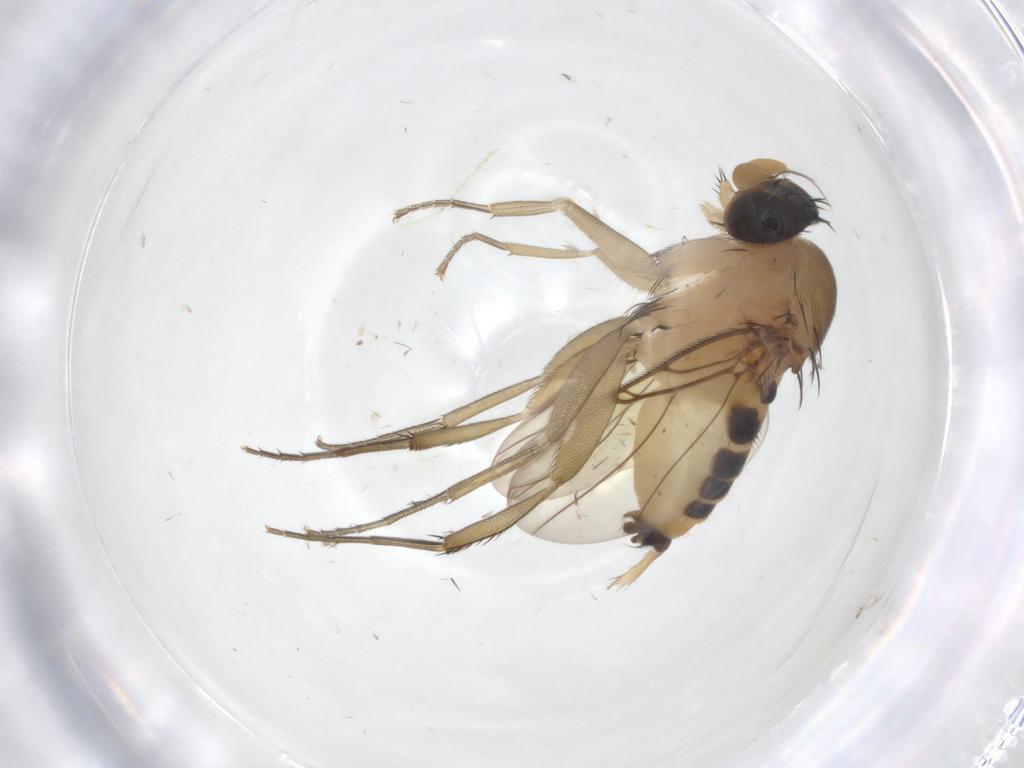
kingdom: Animalia
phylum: Arthropoda
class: Insecta
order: Diptera
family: Phoridae
